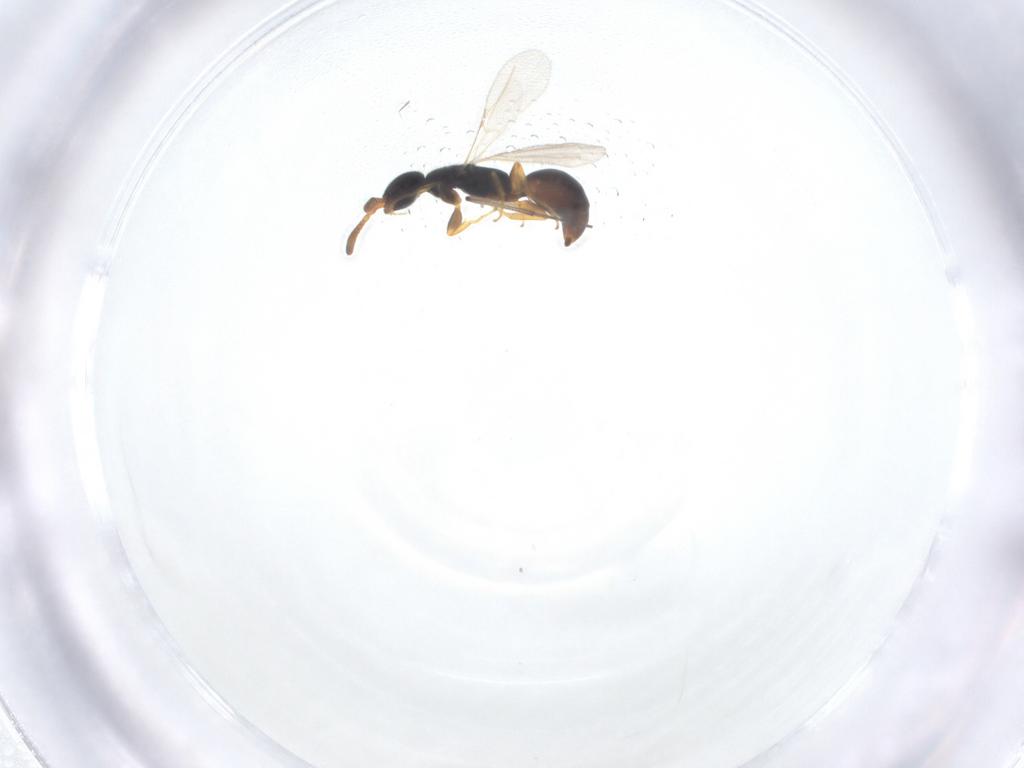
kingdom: Animalia
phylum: Arthropoda
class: Insecta
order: Hymenoptera
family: Bethylidae
